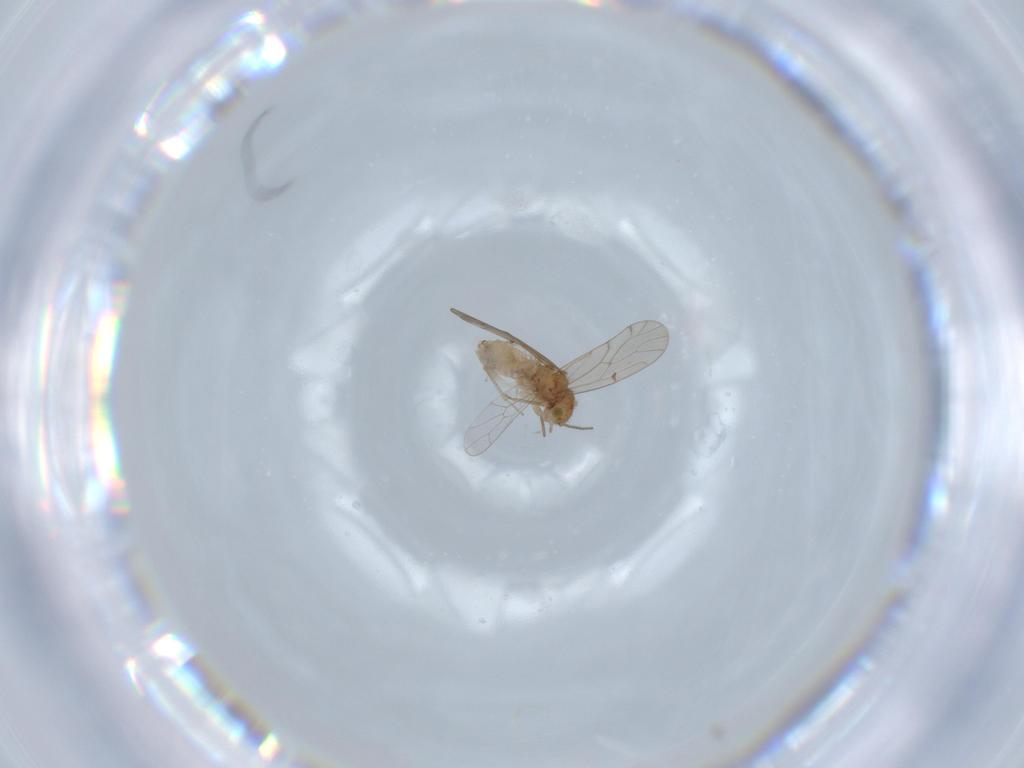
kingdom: Animalia
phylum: Arthropoda
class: Insecta
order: Psocodea
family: Ectopsocidae
